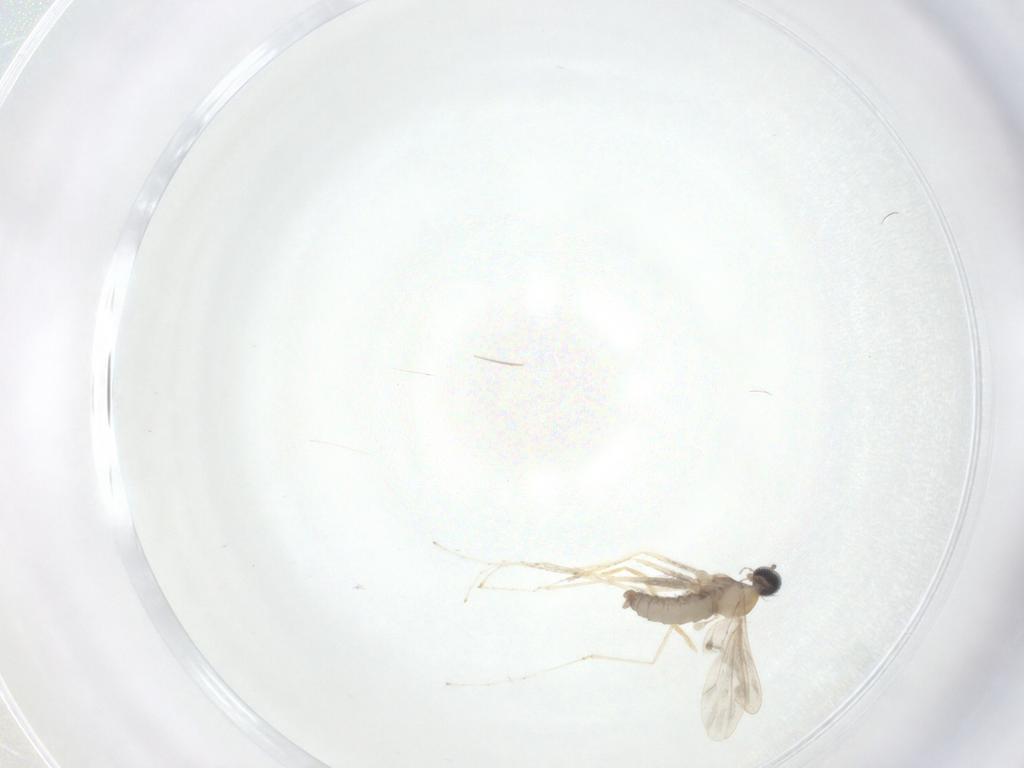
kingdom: Animalia
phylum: Arthropoda
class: Insecta
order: Diptera
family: Cecidomyiidae
